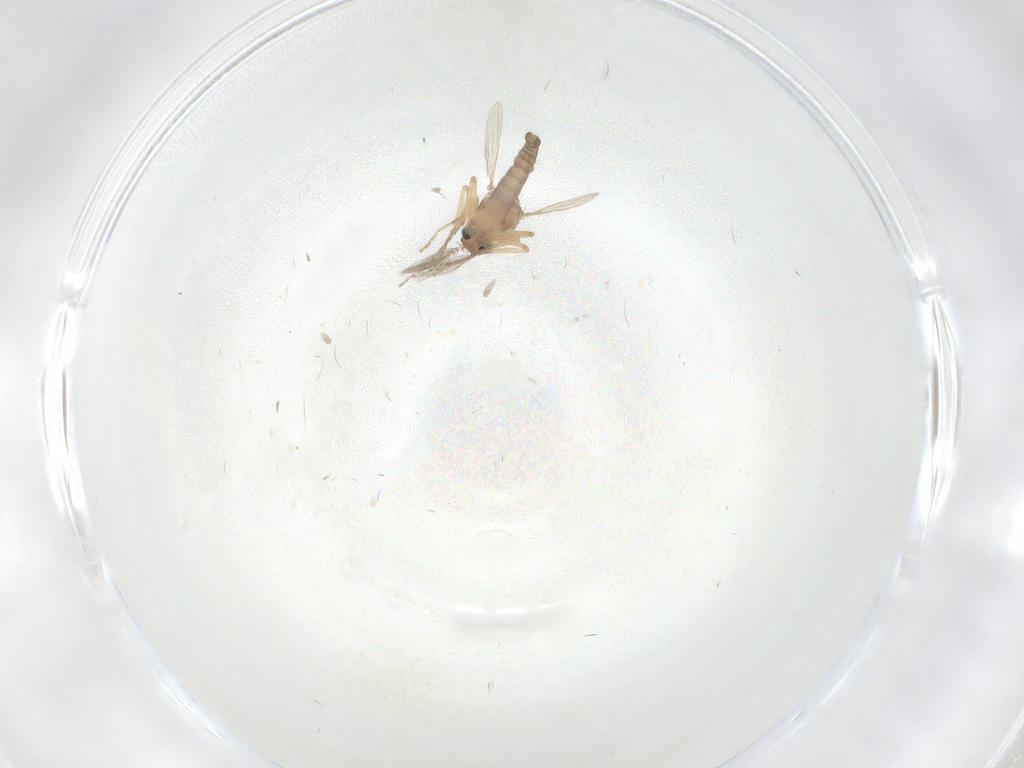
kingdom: Animalia
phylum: Arthropoda
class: Insecta
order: Diptera
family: Ceratopogonidae
